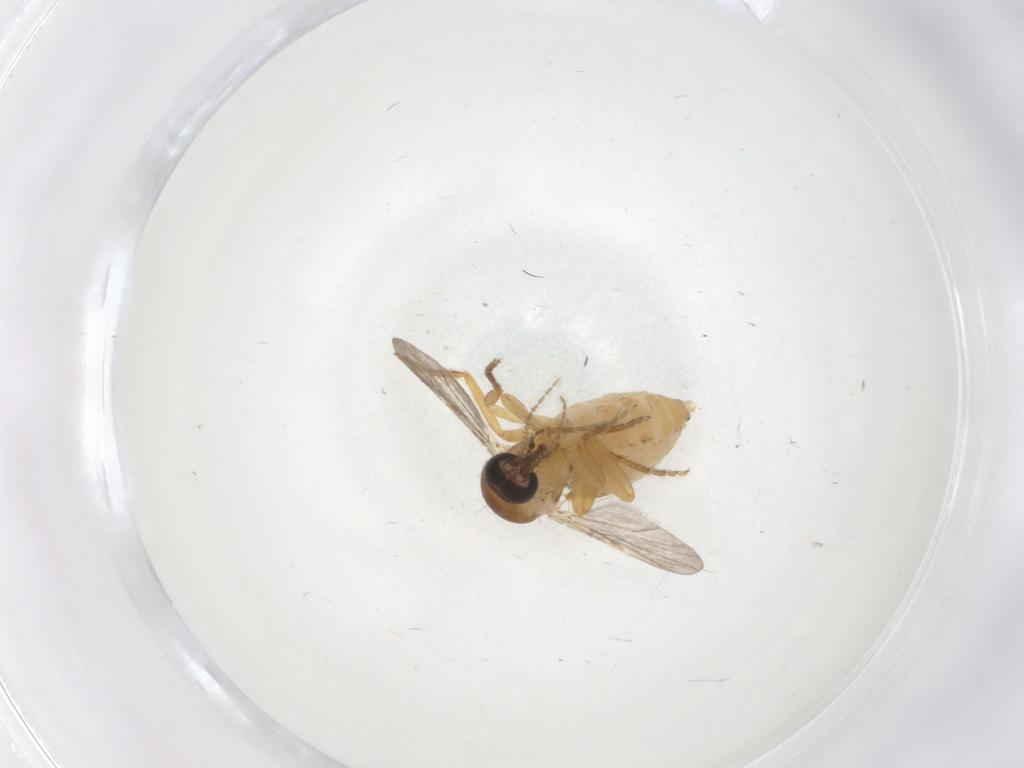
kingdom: Animalia
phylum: Arthropoda
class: Insecta
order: Diptera
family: Ceratopogonidae
